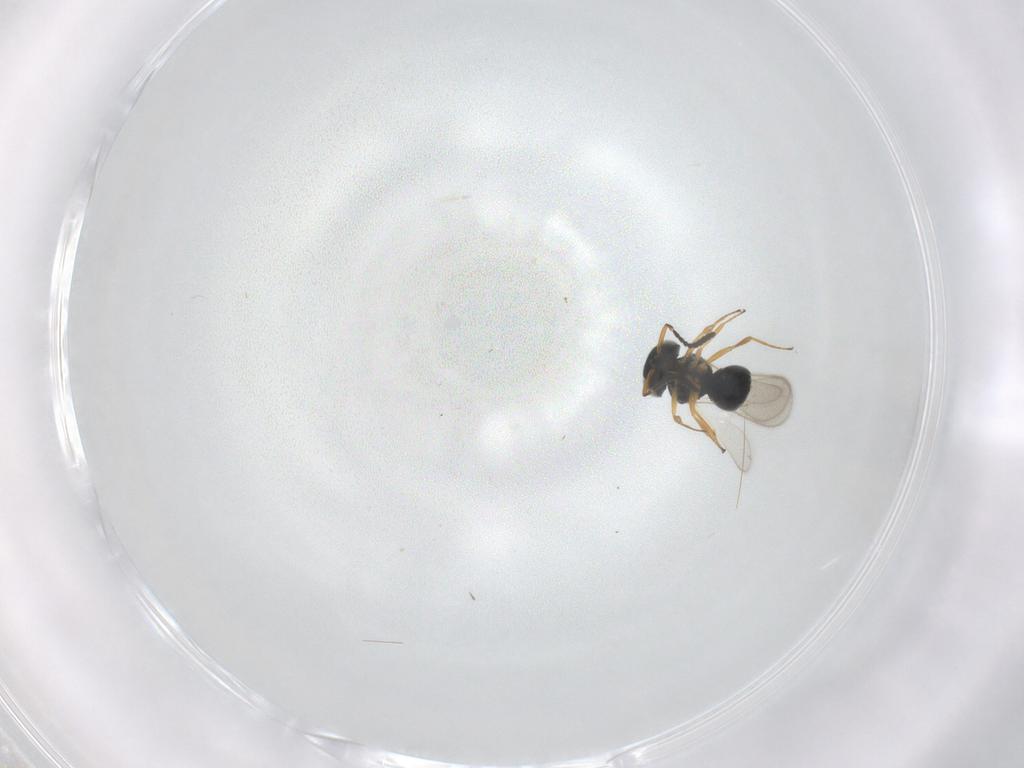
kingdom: Animalia
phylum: Arthropoda
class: Insecta
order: Hymenoptera
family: Scelionidae
